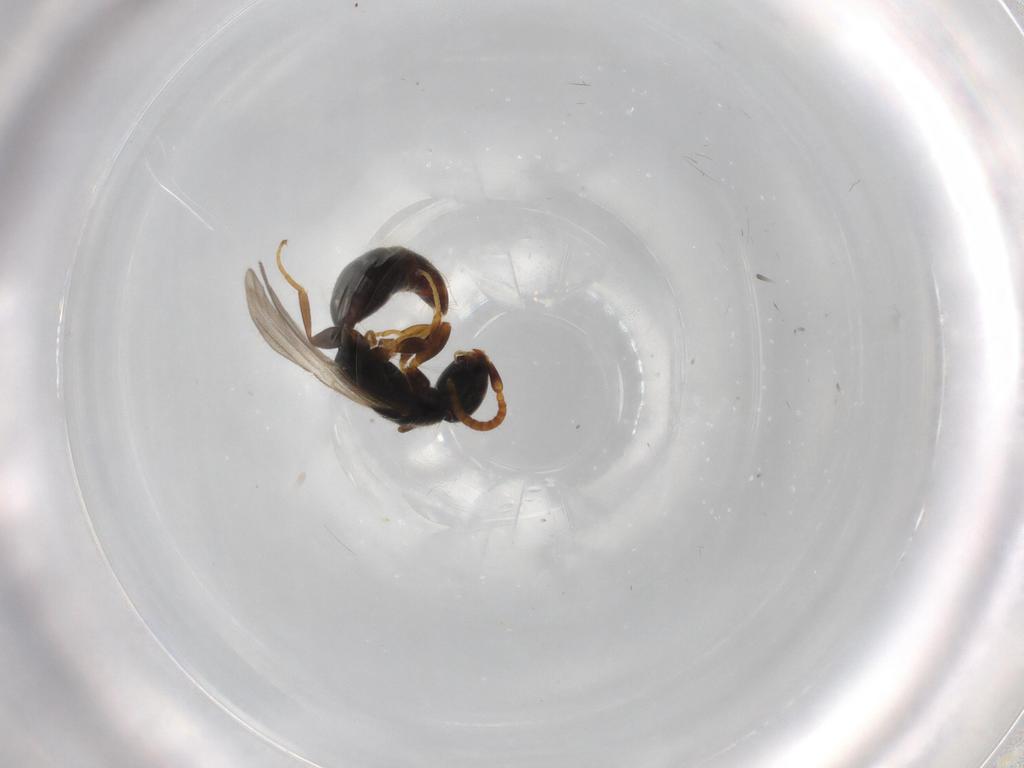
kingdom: Animalia
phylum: Arthropoda
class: Insecta
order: Hymenoptera
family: Bethylidae
